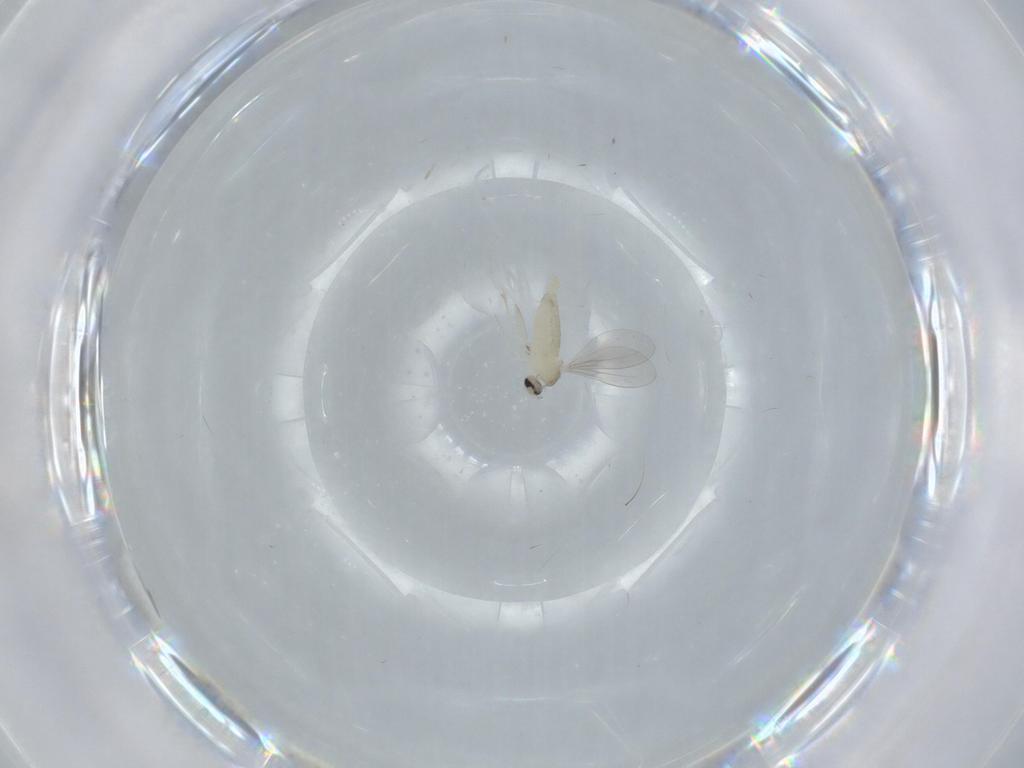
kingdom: Animalia
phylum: Arthropoda
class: Insecta
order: Diptera
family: Cecidomyiidae
